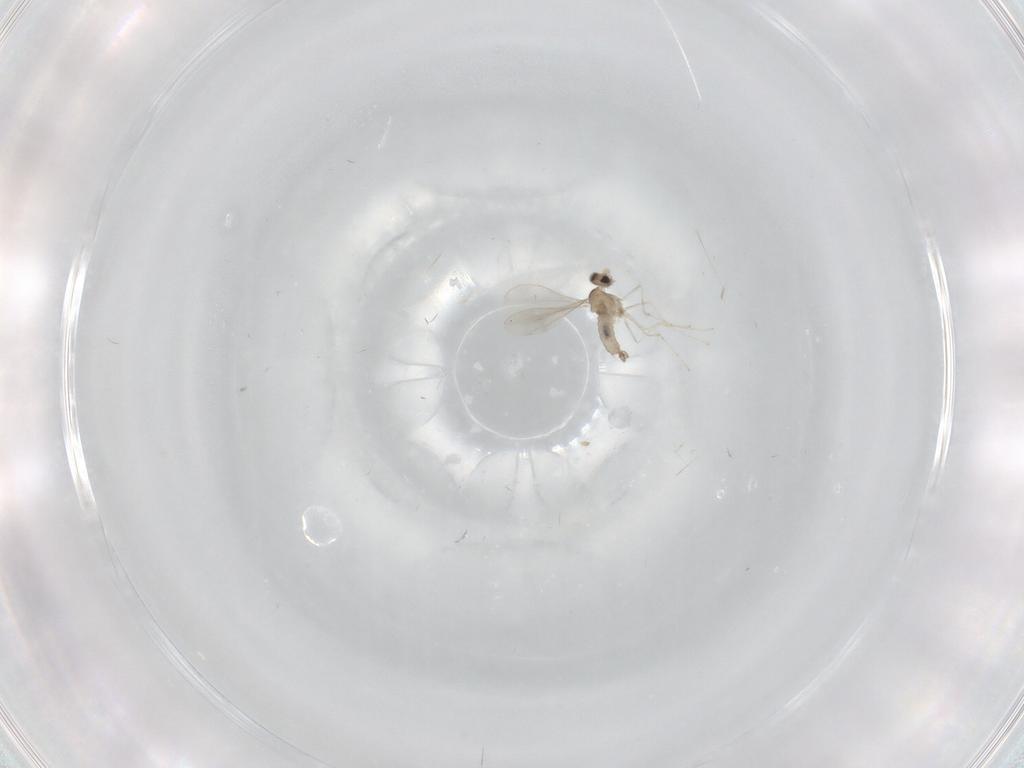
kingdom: Animalia
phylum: Arthropoda
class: Insecta
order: Diptera
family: Cecidomyiidae
